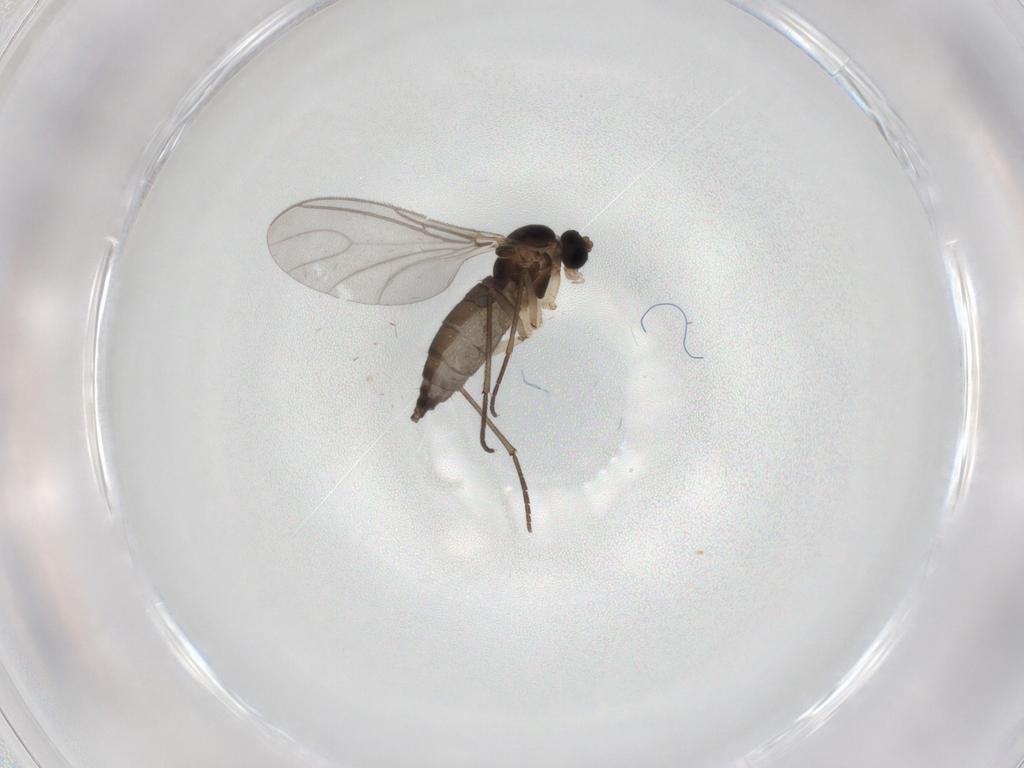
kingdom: Animalia
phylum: Arthropoda
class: Insecta
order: Diptera
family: Sciaridae
